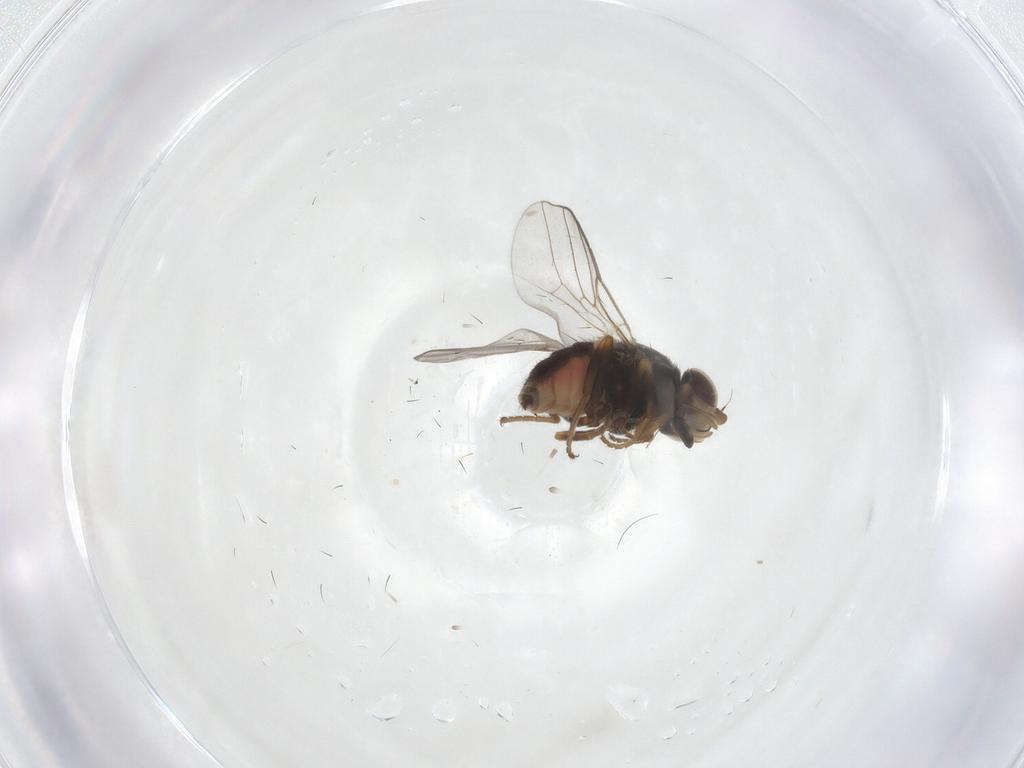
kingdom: Animalia
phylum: Arthropoda
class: Insecta
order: Diptera
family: Chloropidae
